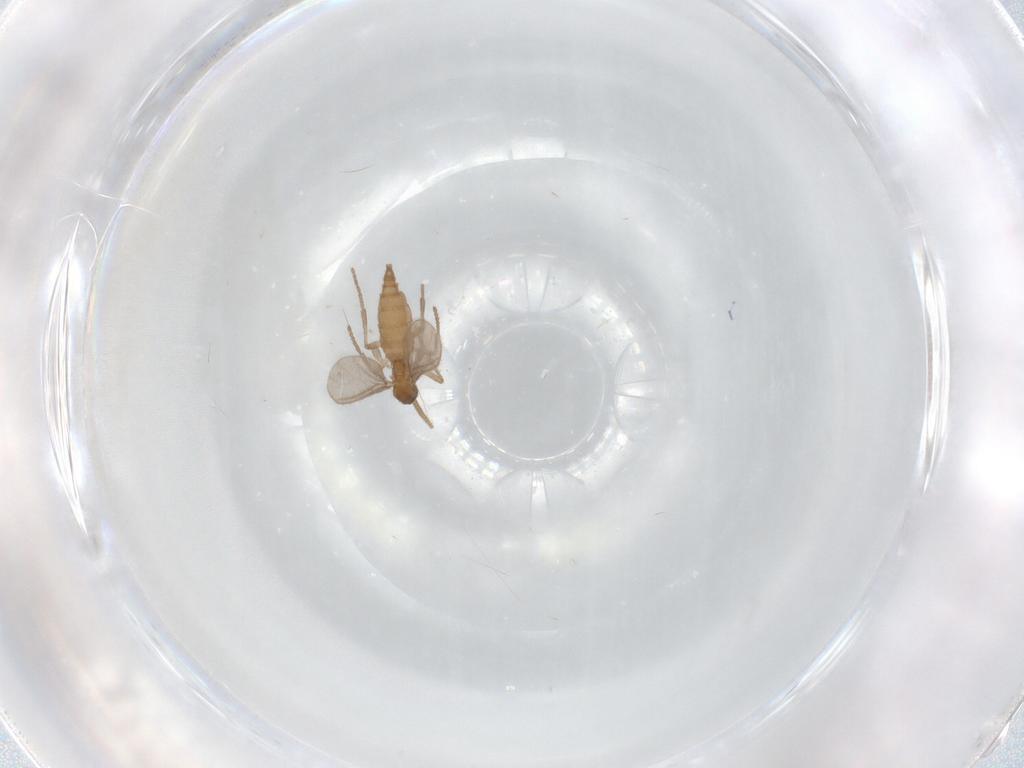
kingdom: Animalia
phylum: Arthropoda
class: Insecta
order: Diptera
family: Sciaridae
